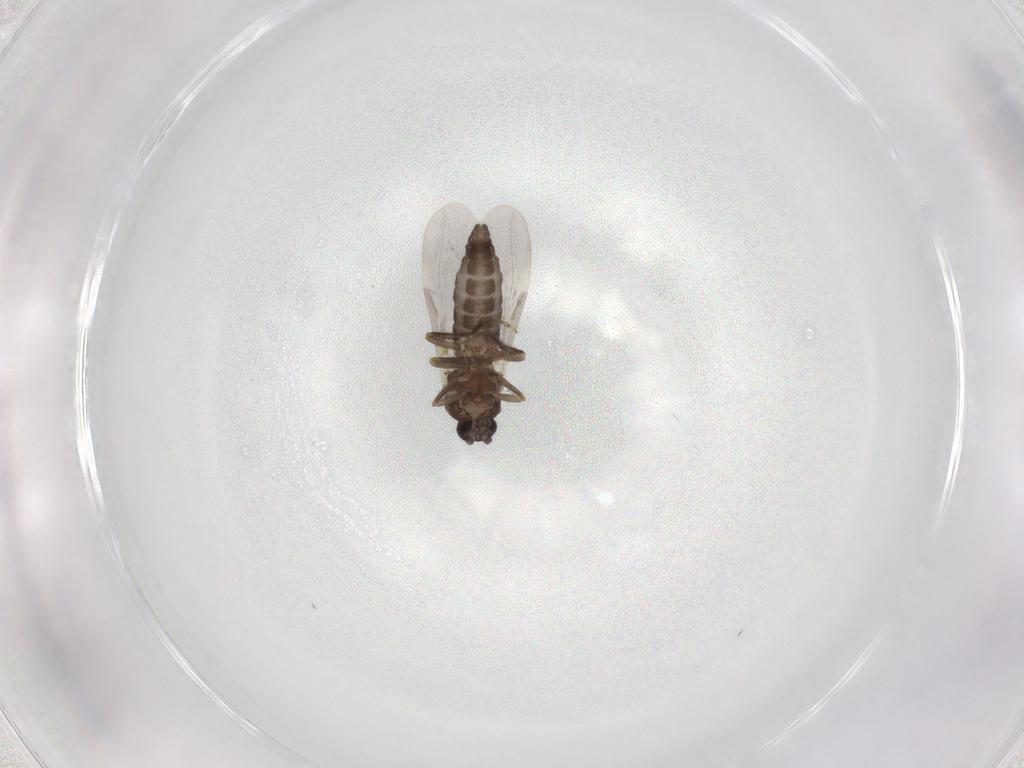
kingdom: Animalia
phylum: Arthropoda
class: Insecta
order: Diptera
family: Ceratopogonidae
